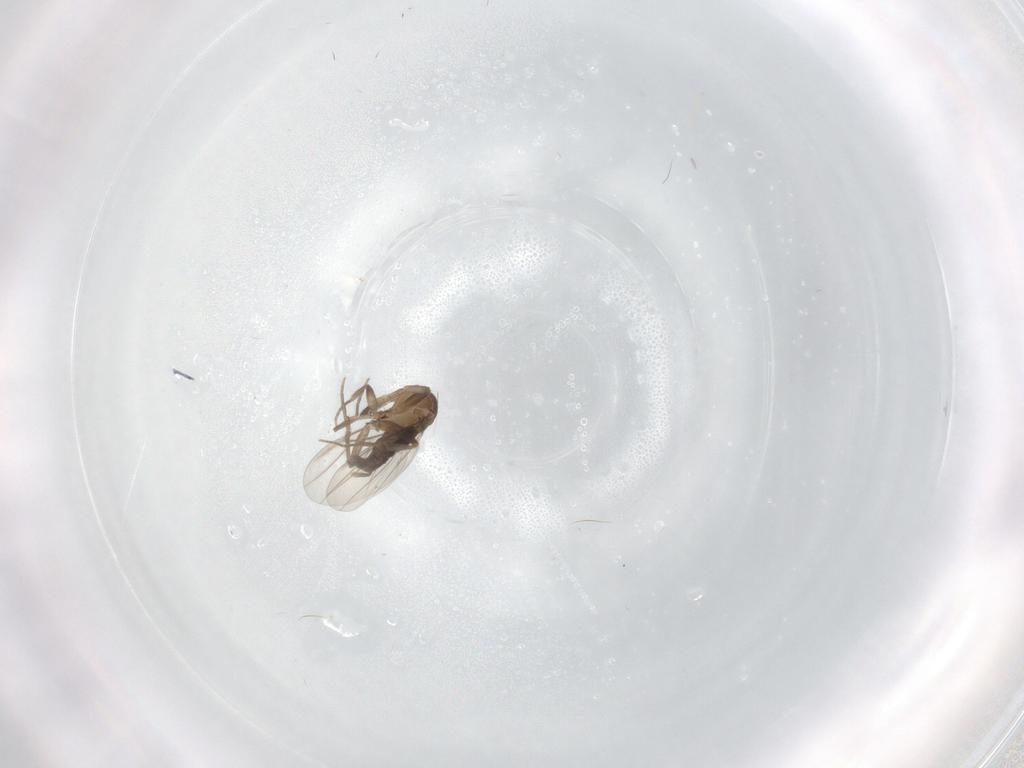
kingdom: Animalia
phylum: Arthropoda
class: Insecta
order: Diptera
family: Phoridae
